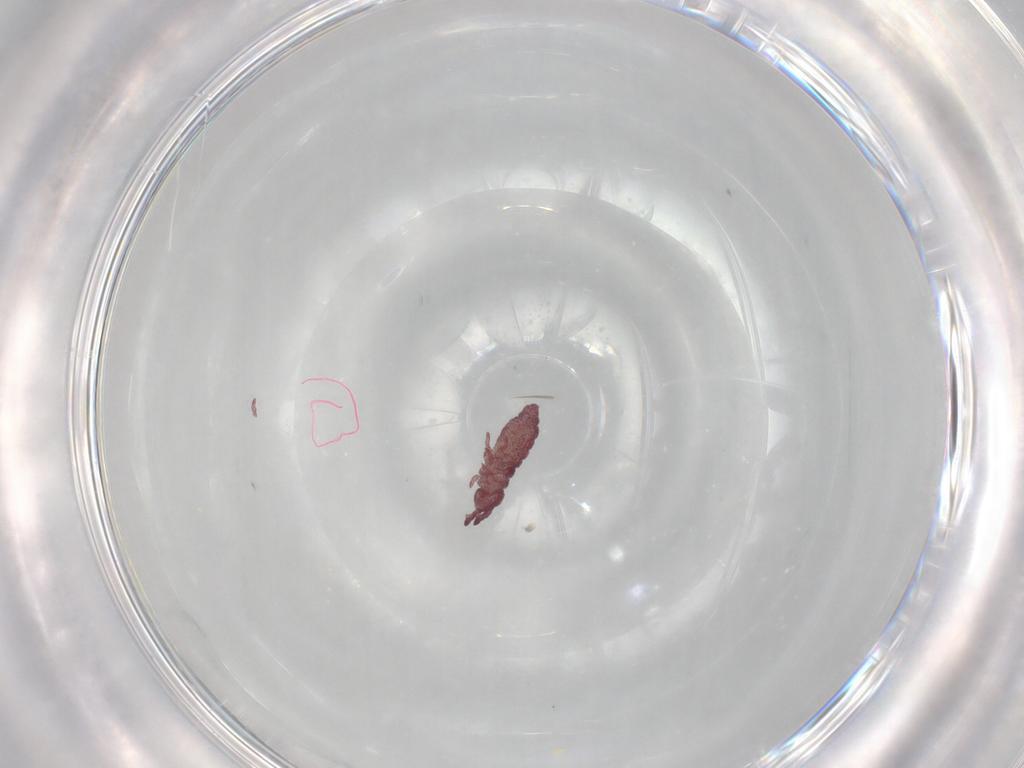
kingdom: Animalia
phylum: Arthropoda
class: Collembola
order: Poduromorpha
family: Hypogastruridae
